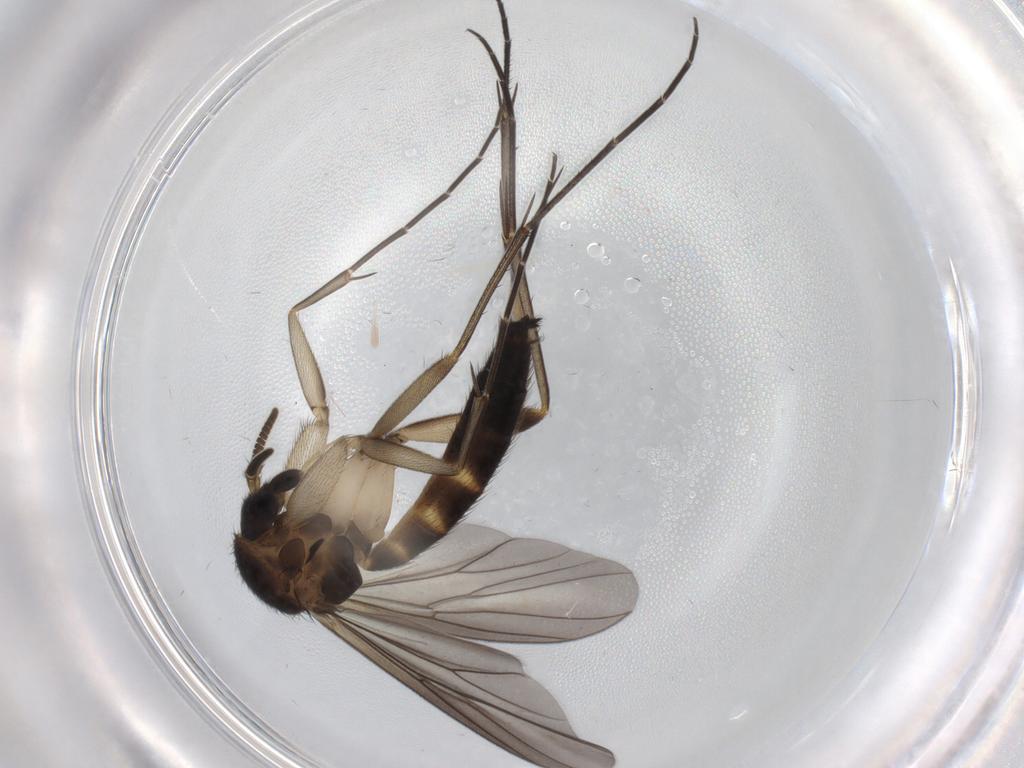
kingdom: Animalia
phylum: Arthropoda
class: Insecta
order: Diptera
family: Mycetophilidae
